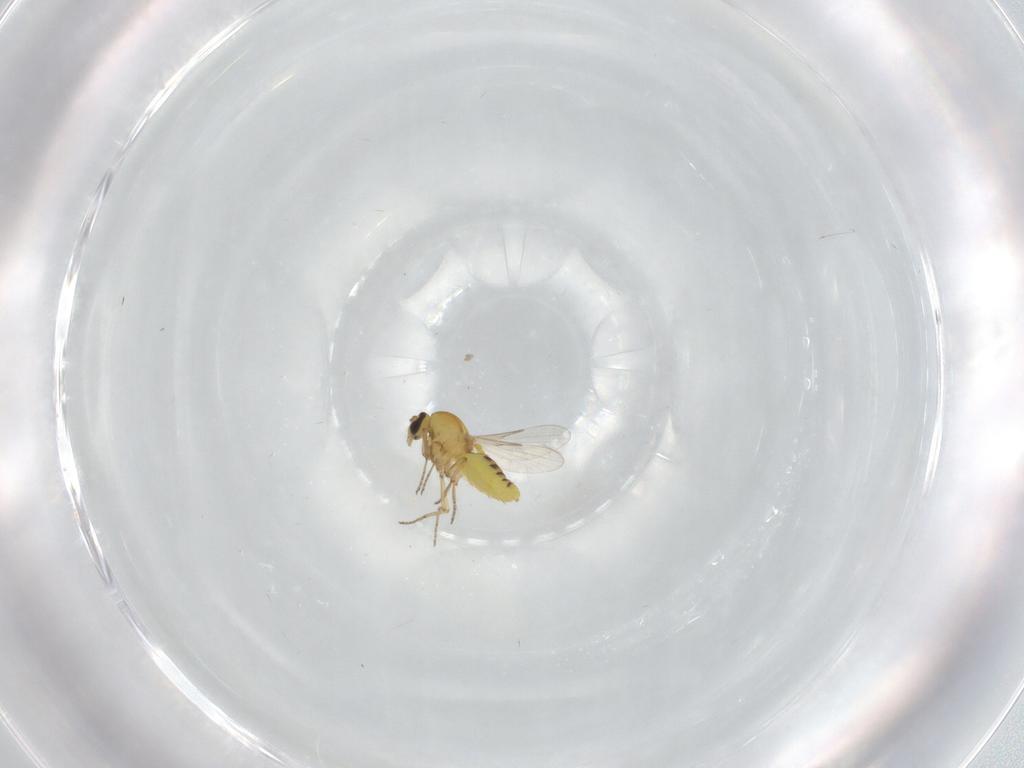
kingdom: Animalia
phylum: Arthropoda
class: Insecta
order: Diptera
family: Ceratopogonidae
